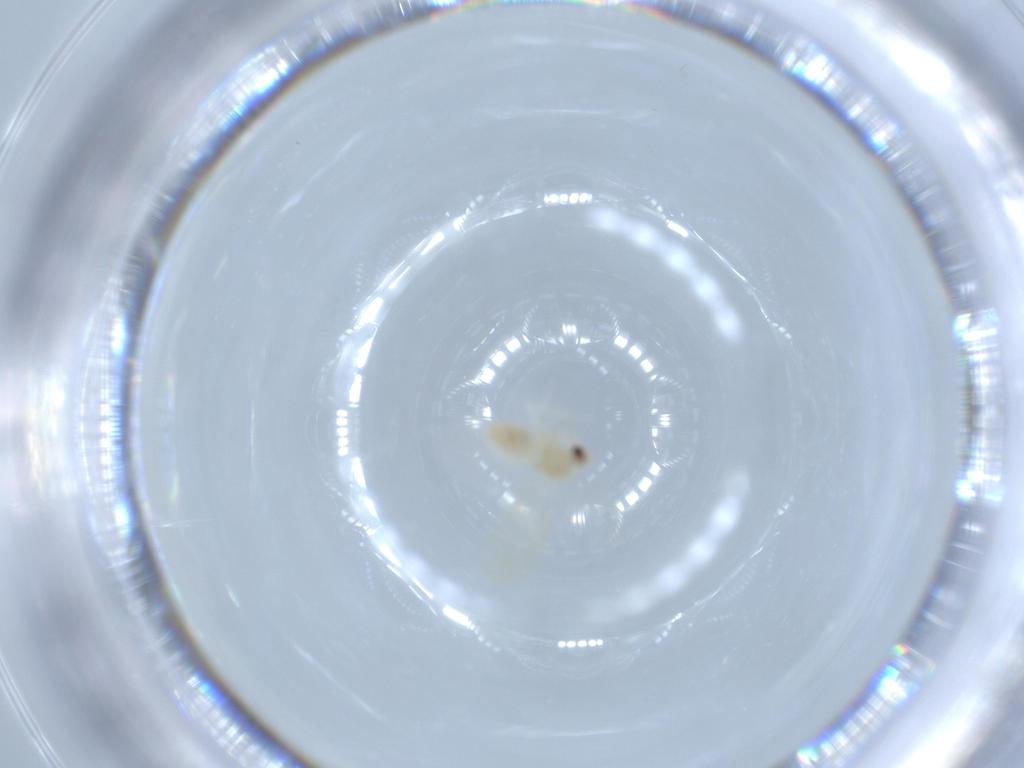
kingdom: Animalia
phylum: Arthropoda
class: Insecta
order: Hemiptera
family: Aleyrodidae
